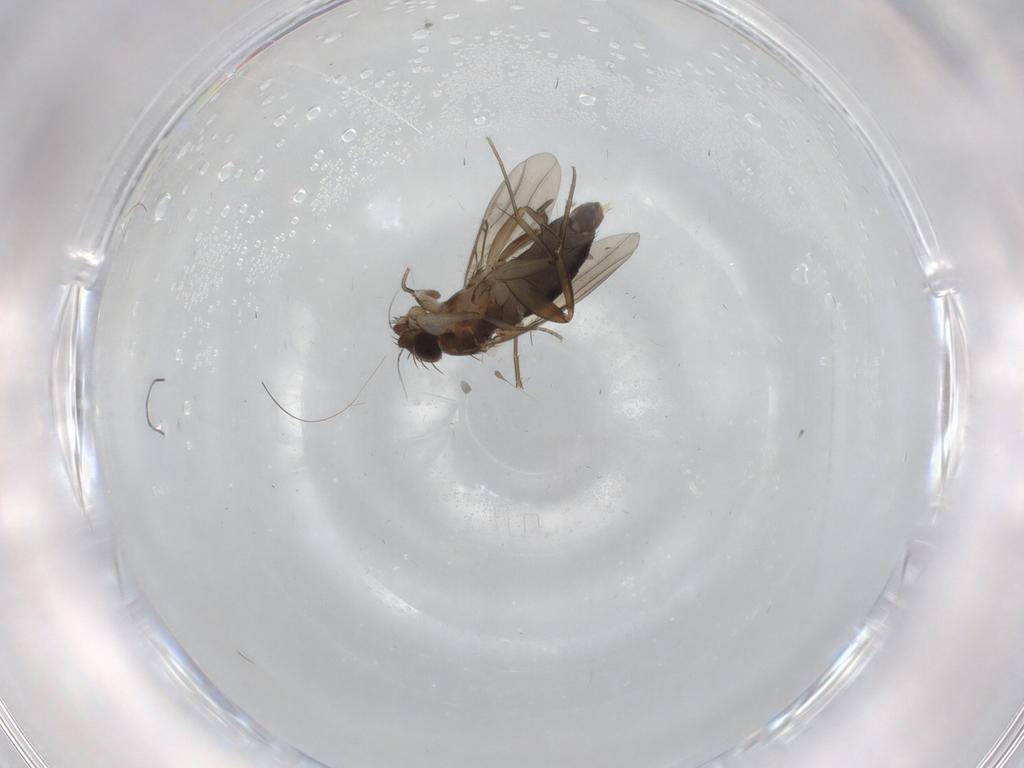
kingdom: Animalia
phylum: Arthropoda
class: Insecta
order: Diptera
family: Phoridae
